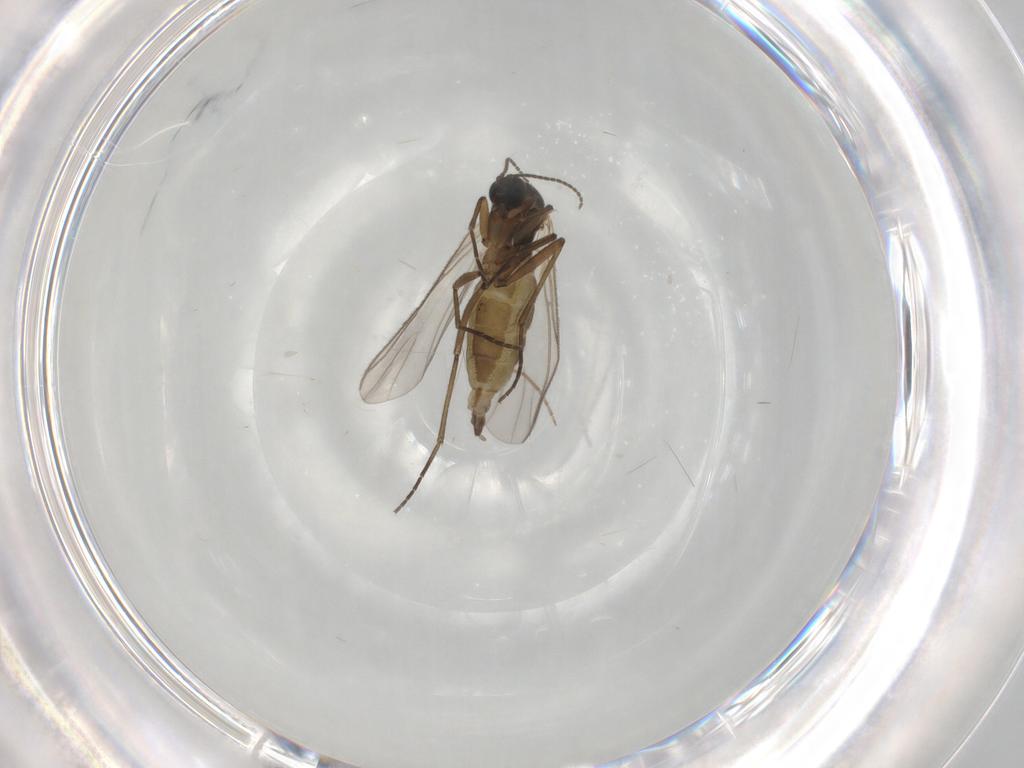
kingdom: Animalia
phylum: Arthropoda
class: Insecta
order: Diptera
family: Chironomidae
